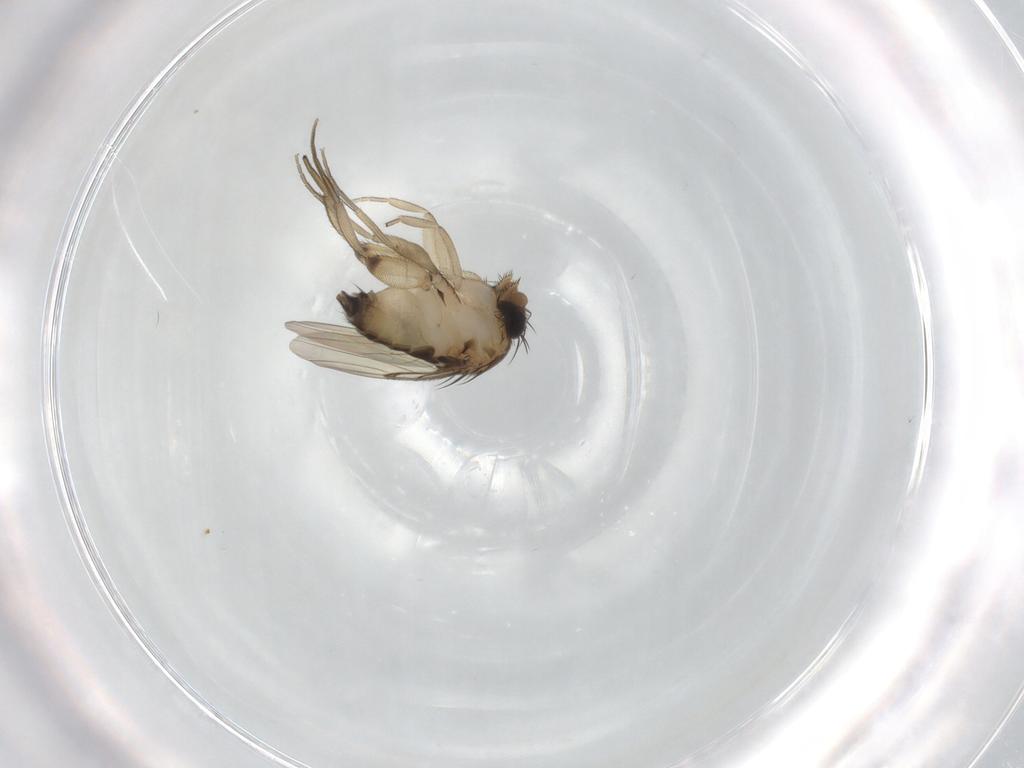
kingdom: Animalia
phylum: Arthropoda
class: Insecta
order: Diptera
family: Phoridae
